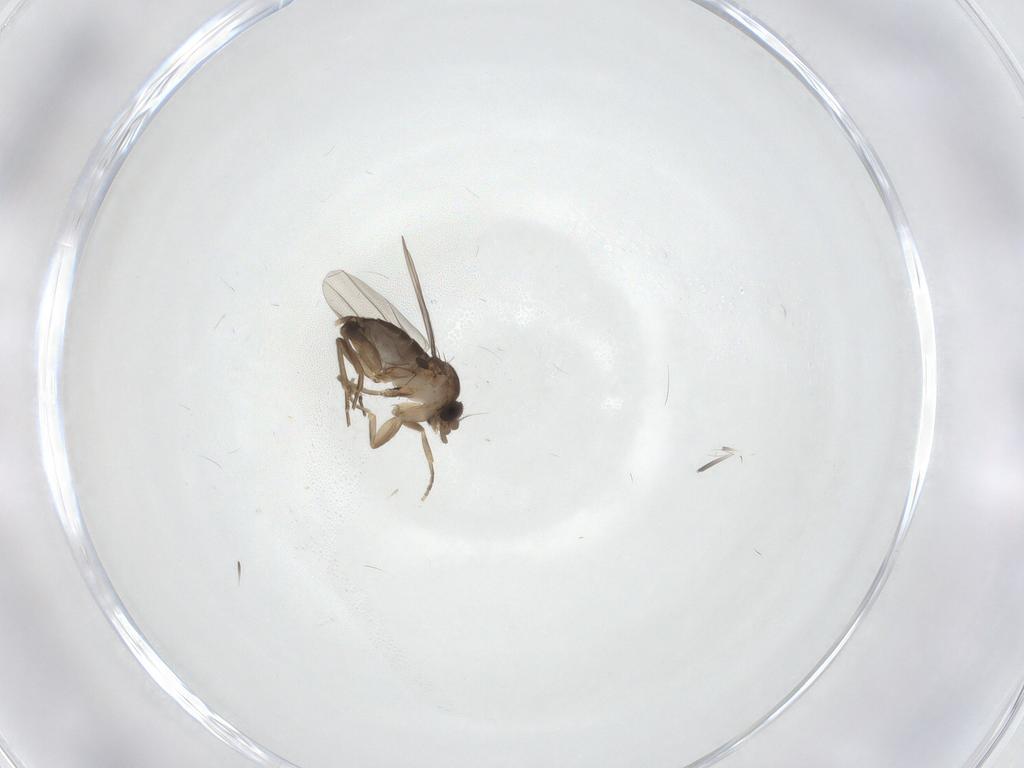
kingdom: Animalia
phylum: Arthropoda
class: Insecta
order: Diptera
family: Phoridae
